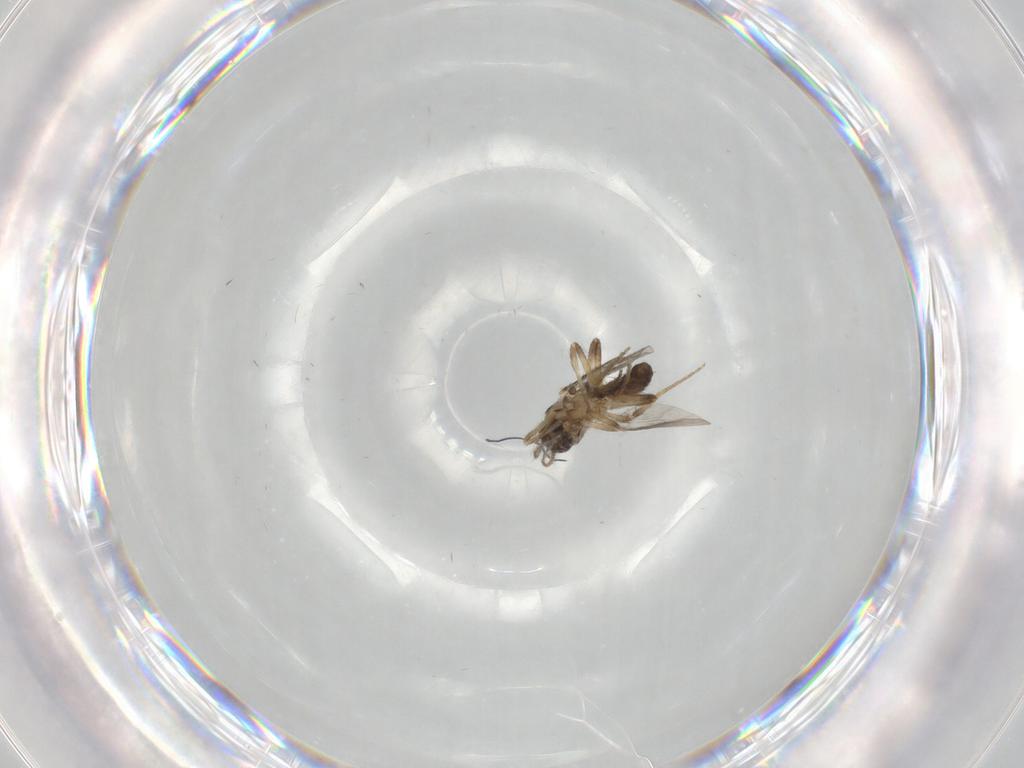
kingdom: Animalia
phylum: Arthropoda
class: Insecta
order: Diptera
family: Ceratopogonidae
